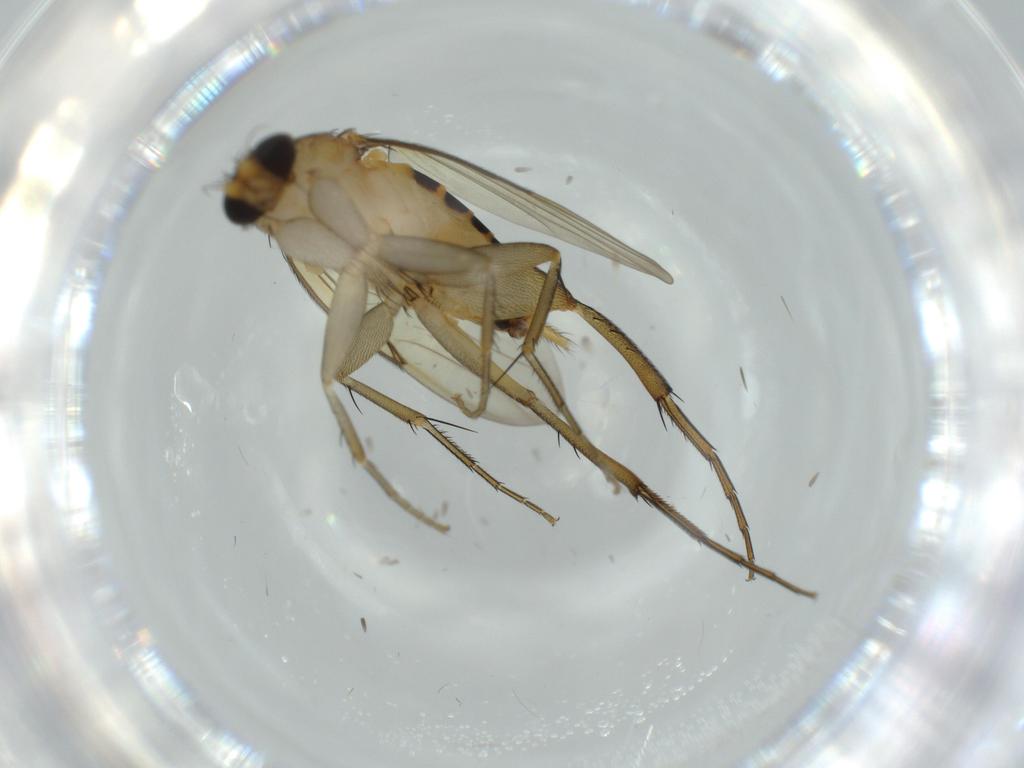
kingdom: Animalia
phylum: Arthropoda
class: Insecta
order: Diptera
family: Phoridae
